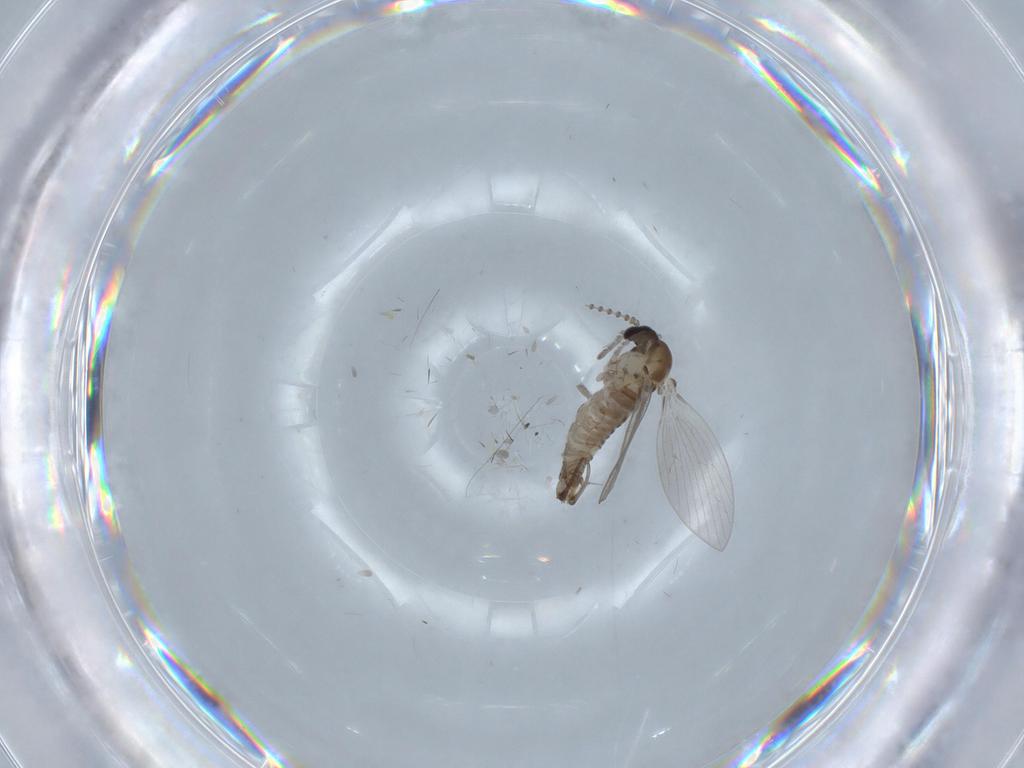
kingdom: Animalia
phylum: Arthropoda
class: Insecta
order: Diptera
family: Psychodidae
